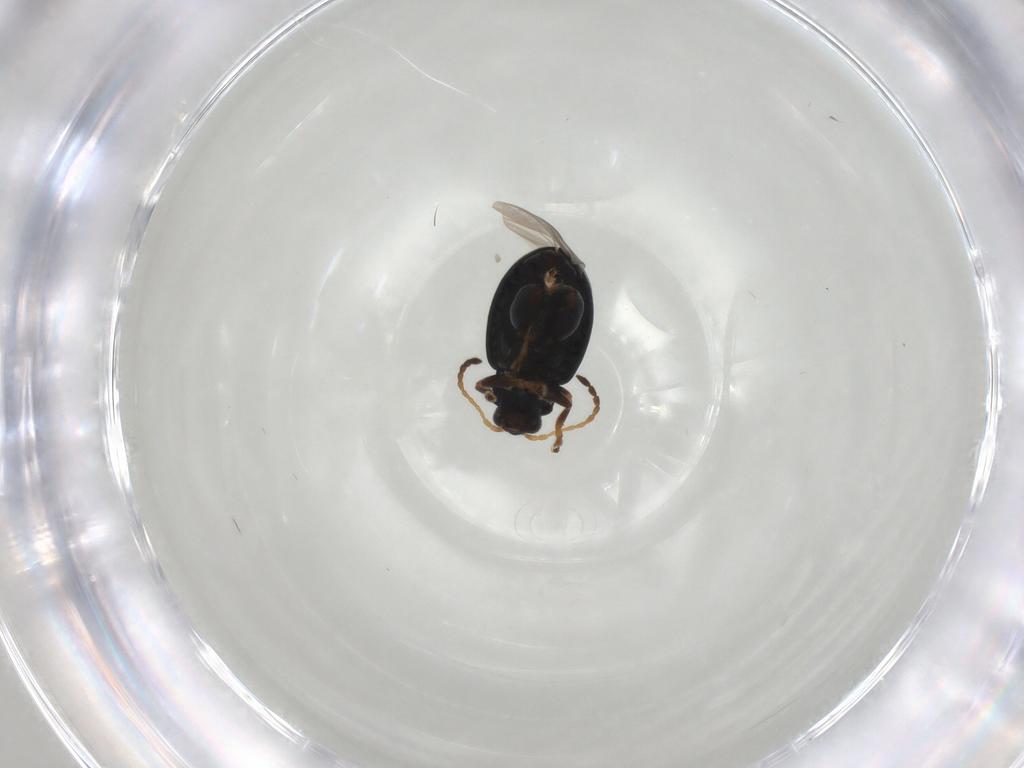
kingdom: Animalia
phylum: Arthropoda
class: Insecta
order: Coleoptera
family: Chrysomelidae
